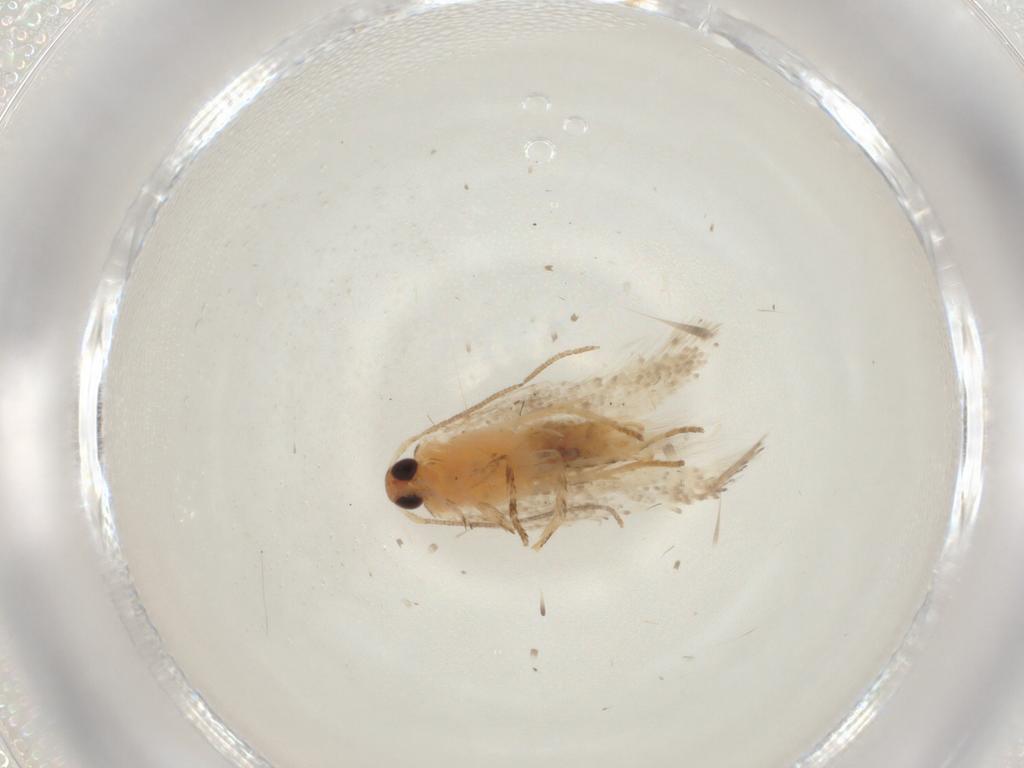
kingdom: Animalia
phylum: Arthropoda
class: Insecta
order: Lepidoptera
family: Gelechiidae
